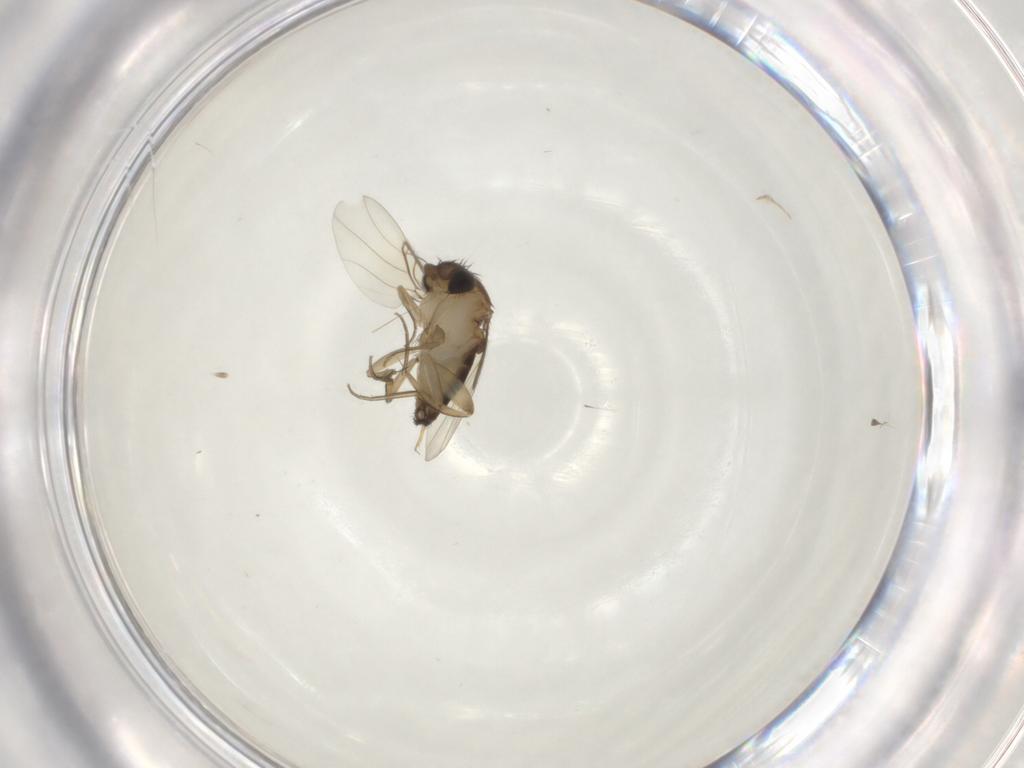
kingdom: Animalia
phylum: Arthropoda
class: Insecta
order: Diptera
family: Phoridae
